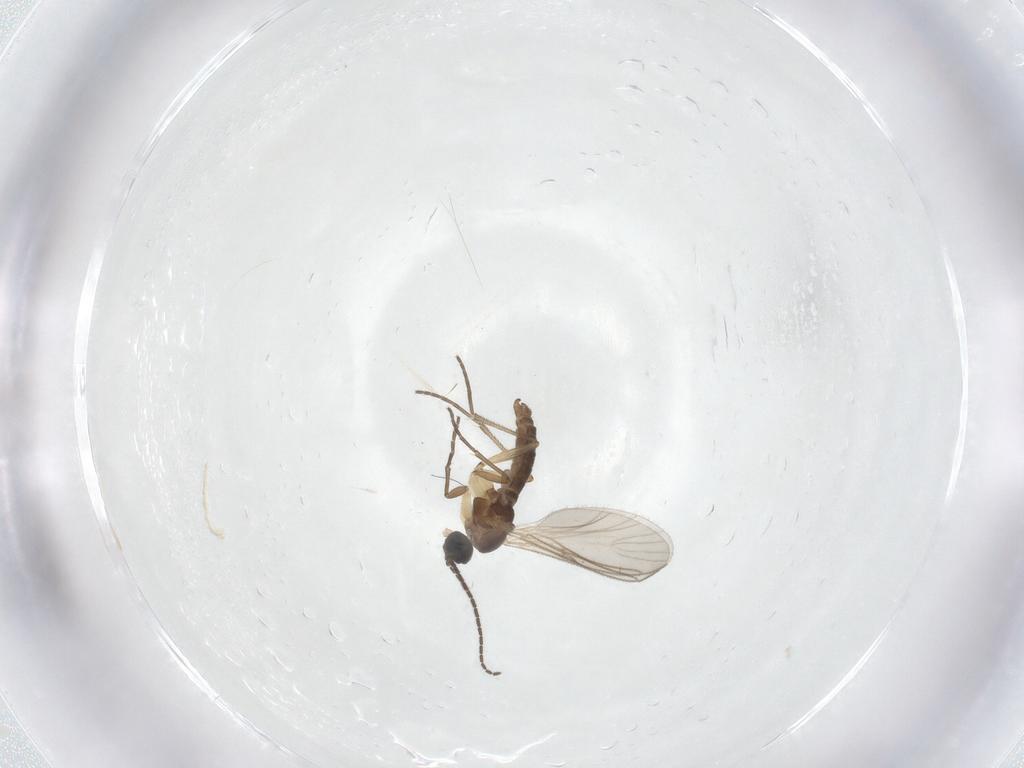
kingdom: Animalia
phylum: Arthropoda
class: Insecta
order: Diptera
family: Sciaridae
